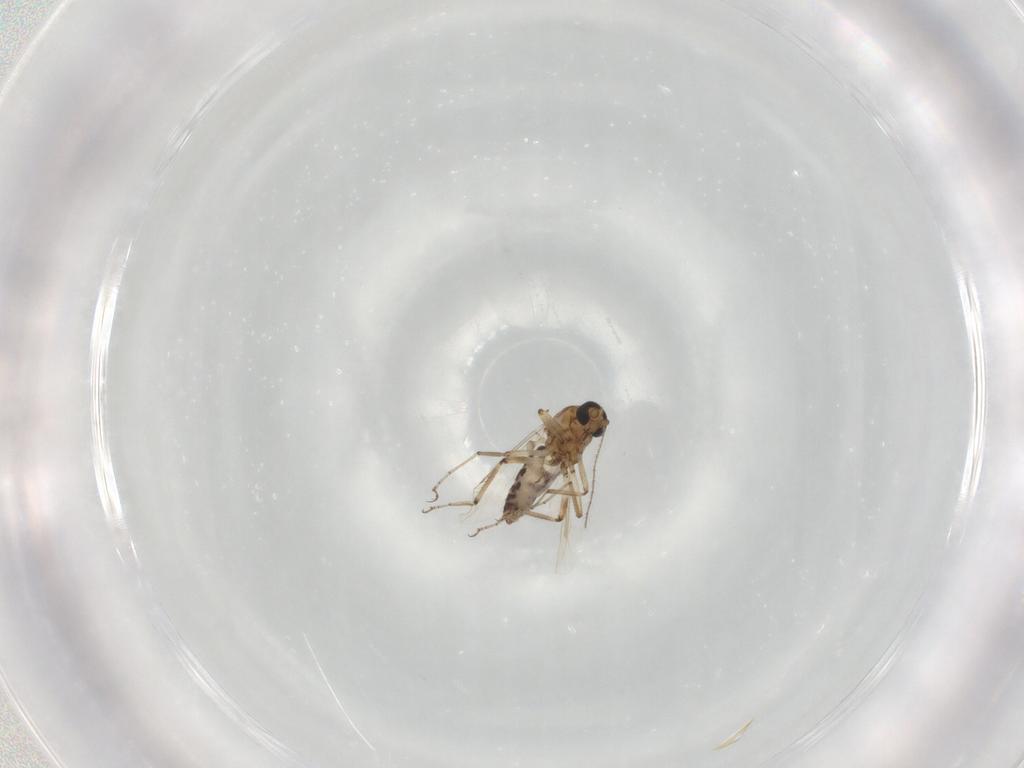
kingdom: Animalia
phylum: Arthropoda
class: Insecta
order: Diptera
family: Ceratopogonidae
